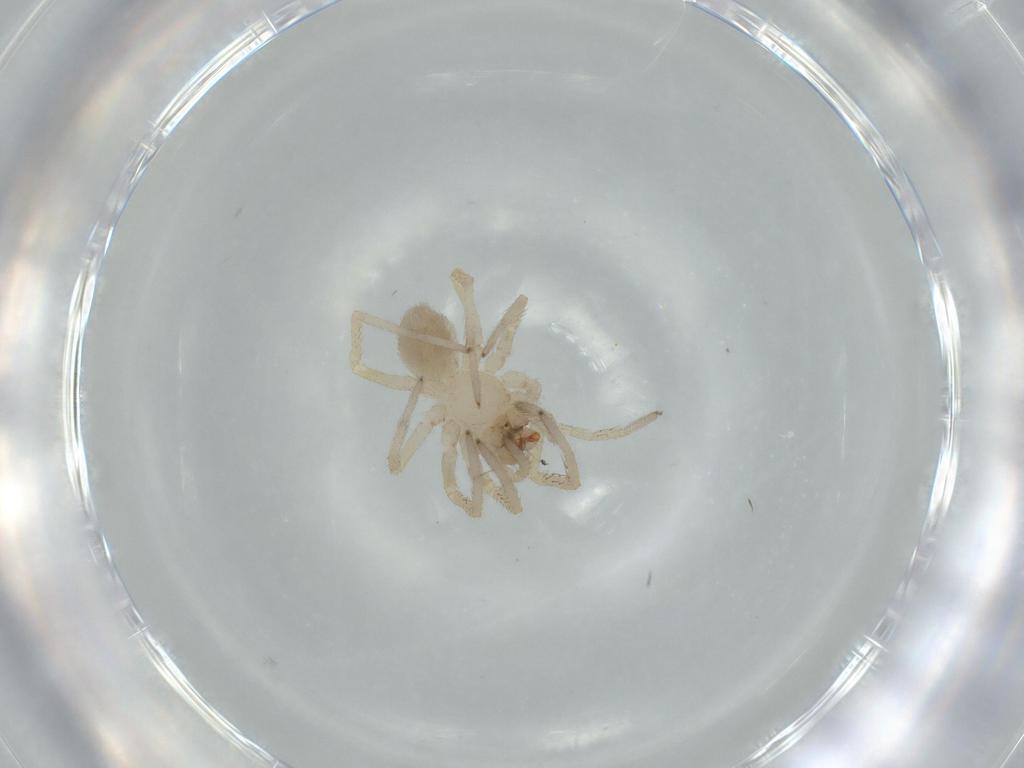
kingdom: Animalia
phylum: Arthropoda
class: Arachnida
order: Araneae
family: Corinnidae
